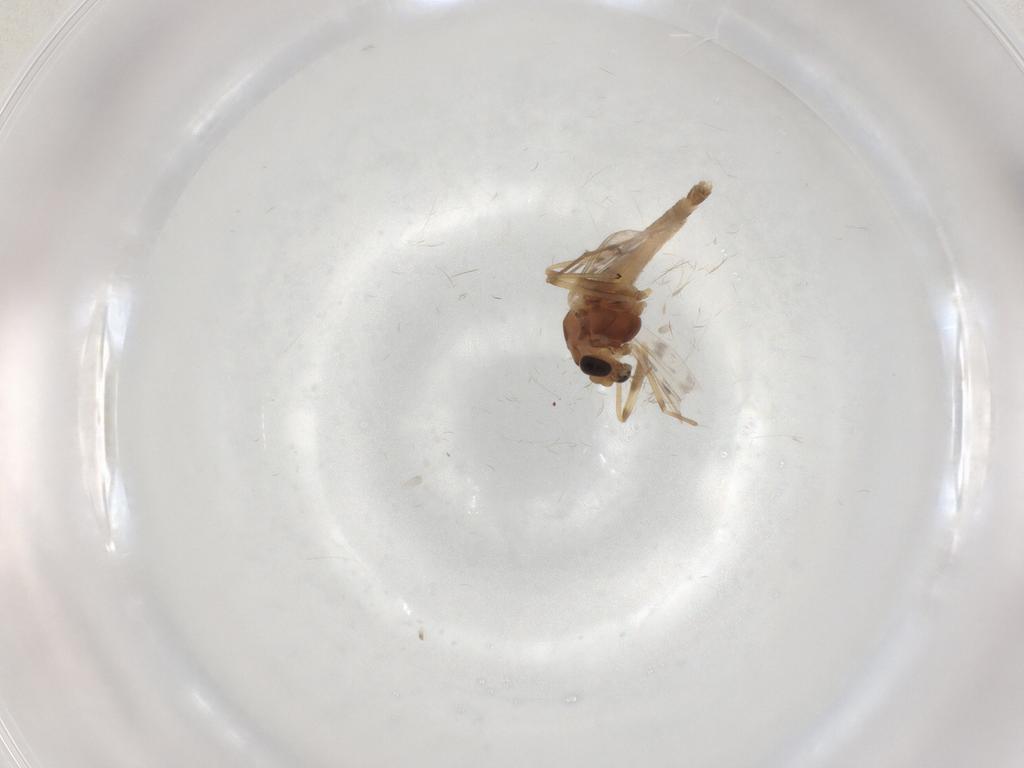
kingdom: Animalia
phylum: Arthropoda
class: Insecta
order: Diptera
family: Chironomidae
